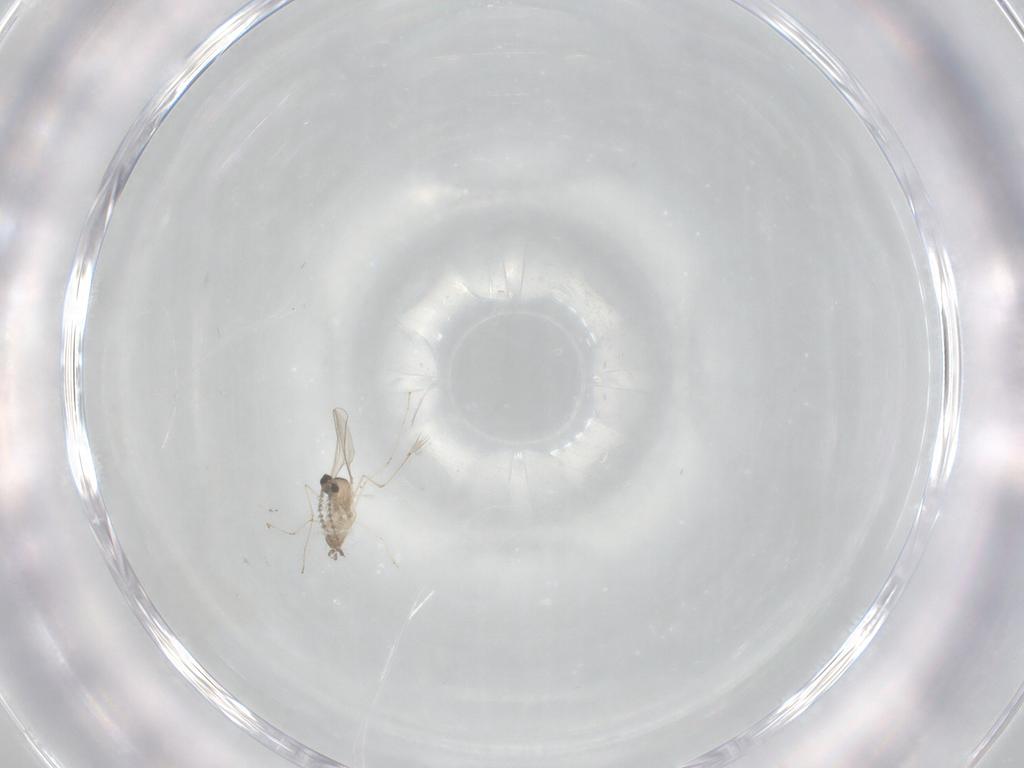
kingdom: Animalia
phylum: Arthropoda
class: Insecta
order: Diptera
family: Cecidomyiidae
